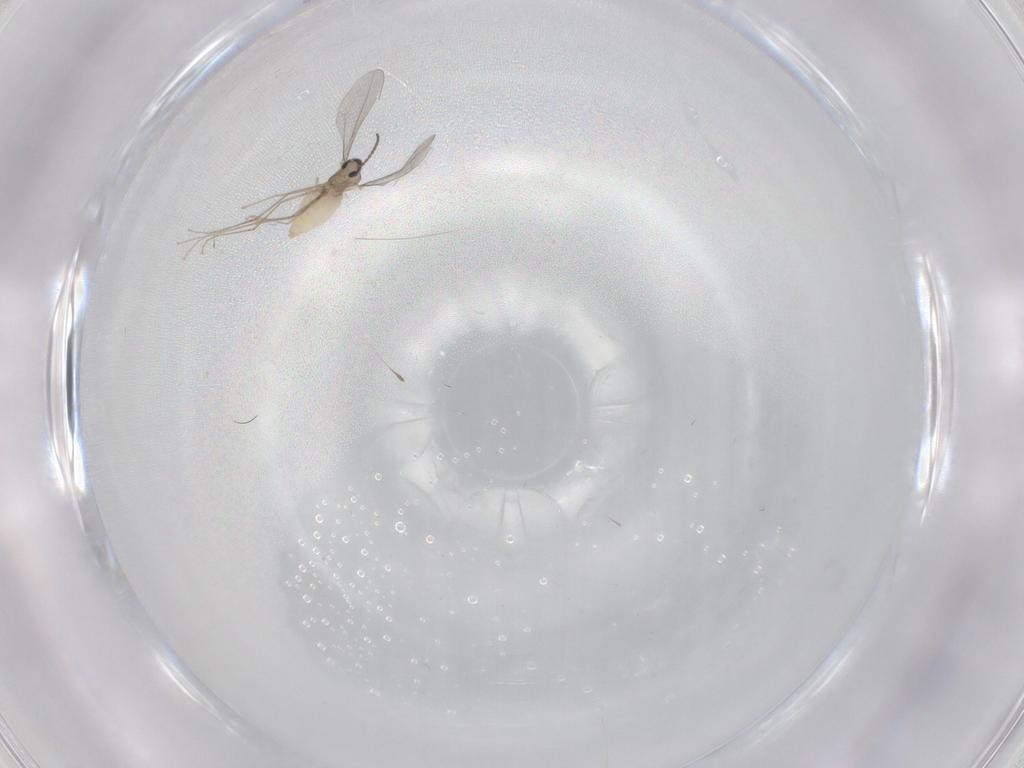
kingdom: Animalia
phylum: Arthropoda
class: Insecta
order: Diptera
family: Cecidomyiidae
